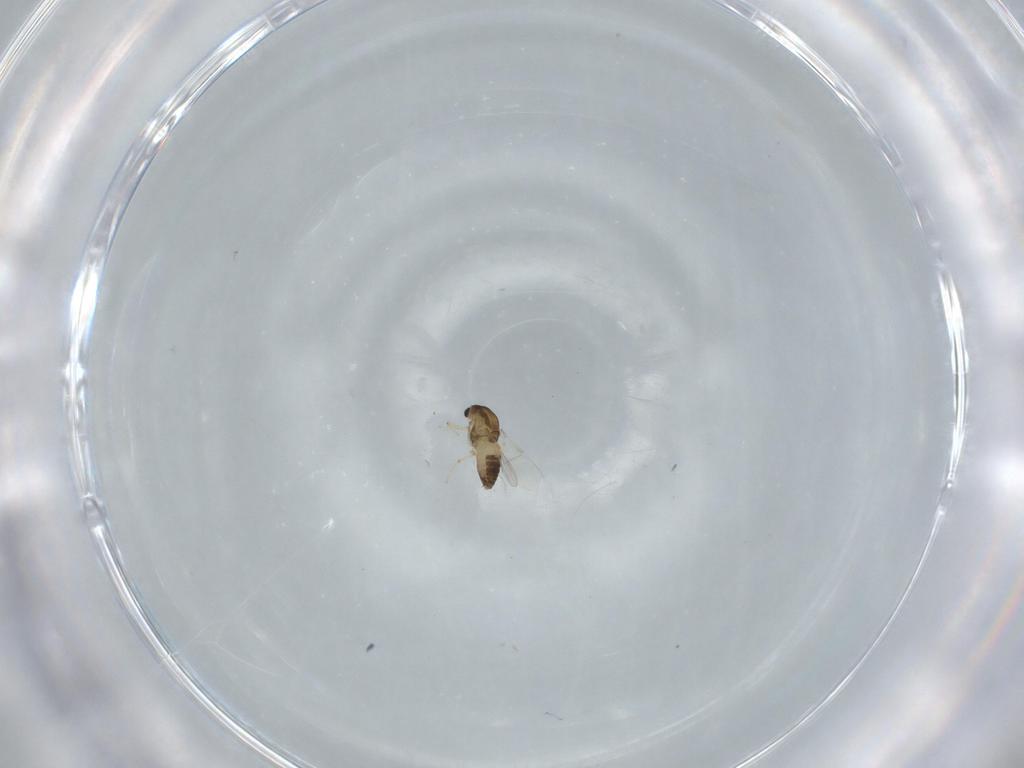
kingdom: Animalia
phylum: Arthropoda
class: Insecta
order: Diptera
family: Chironomidae
